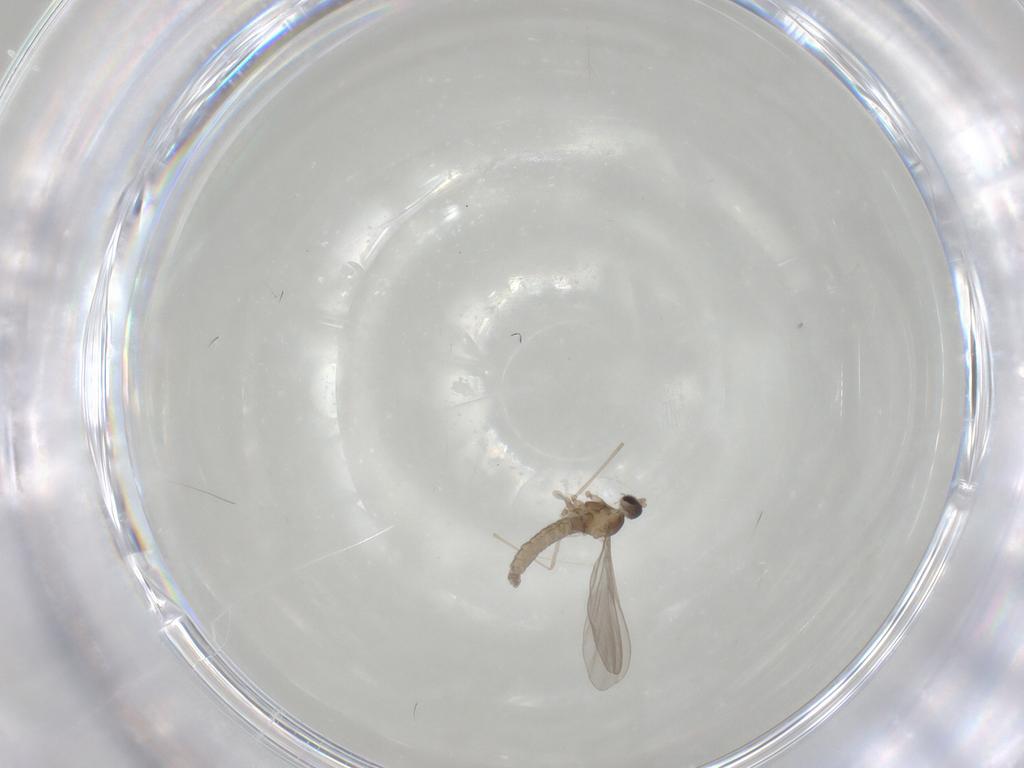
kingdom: Animalia
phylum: Arthropoda
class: Insecta
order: Diptera
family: Cecidomyiidae
